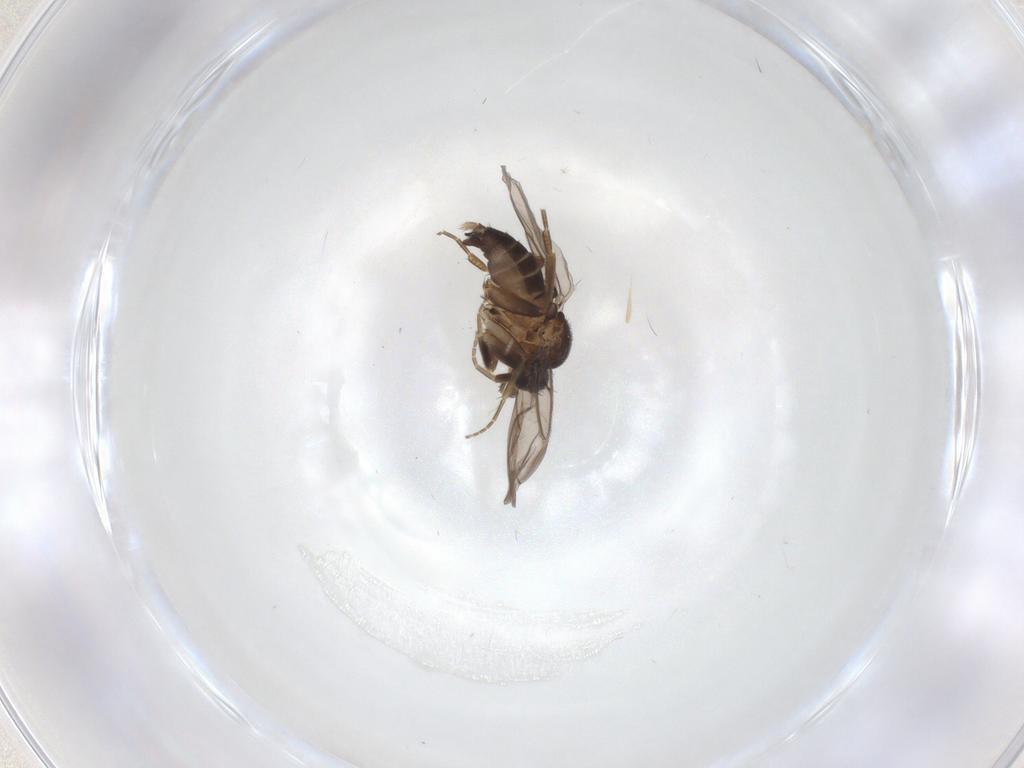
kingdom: Animalia
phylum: Arthropoda
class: Insecta
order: Diptera
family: Phoridae
